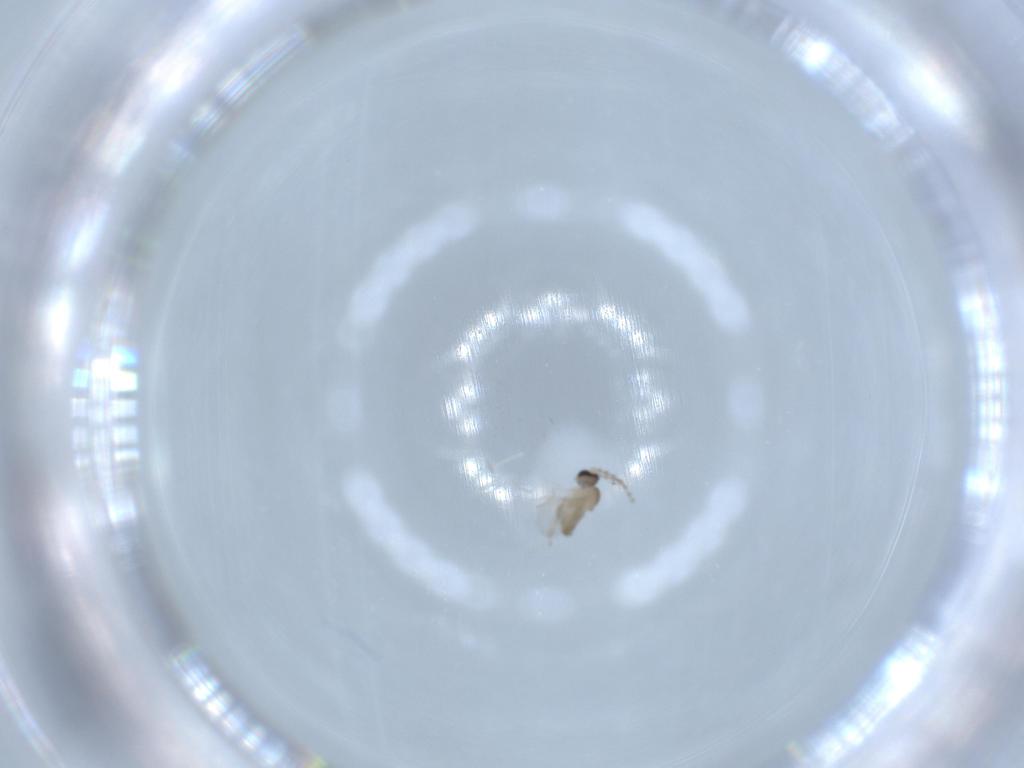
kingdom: Animalia
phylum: Arthropoda
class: Insecta
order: Diptera
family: Cecidomyiidae
